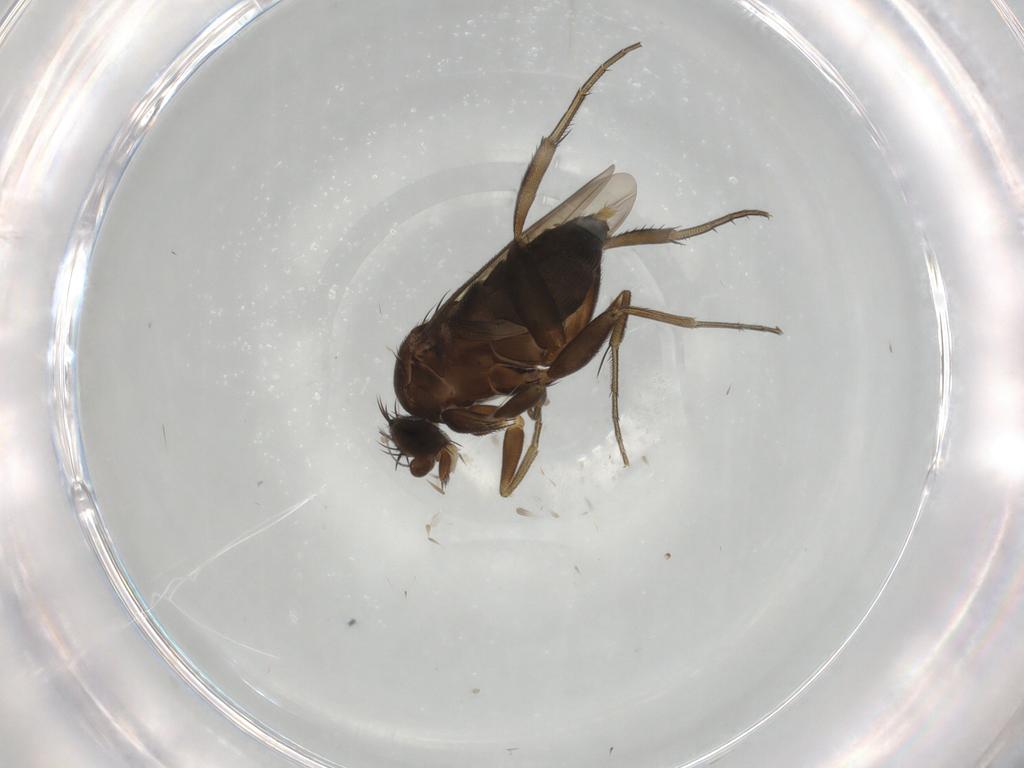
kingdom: Animalia
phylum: Arthropoda
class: Insecta
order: Diptera
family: Phoridae
